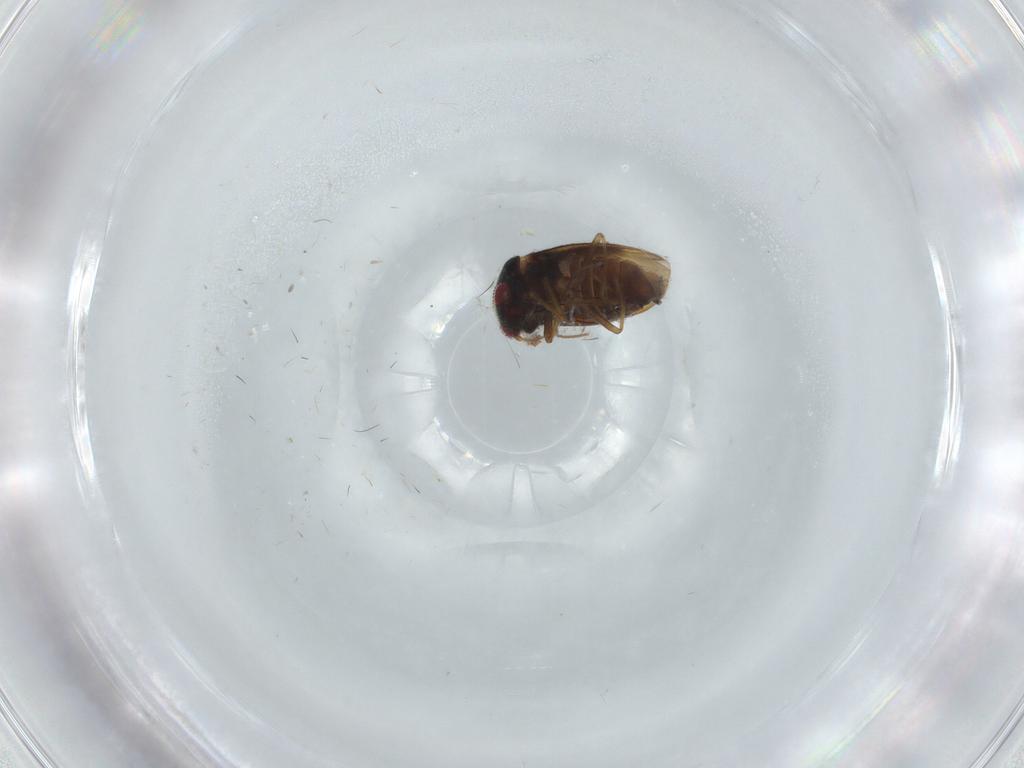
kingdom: Animalia
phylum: Arthropoda
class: Insecta
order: Hemiptera
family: Schizopteridae
